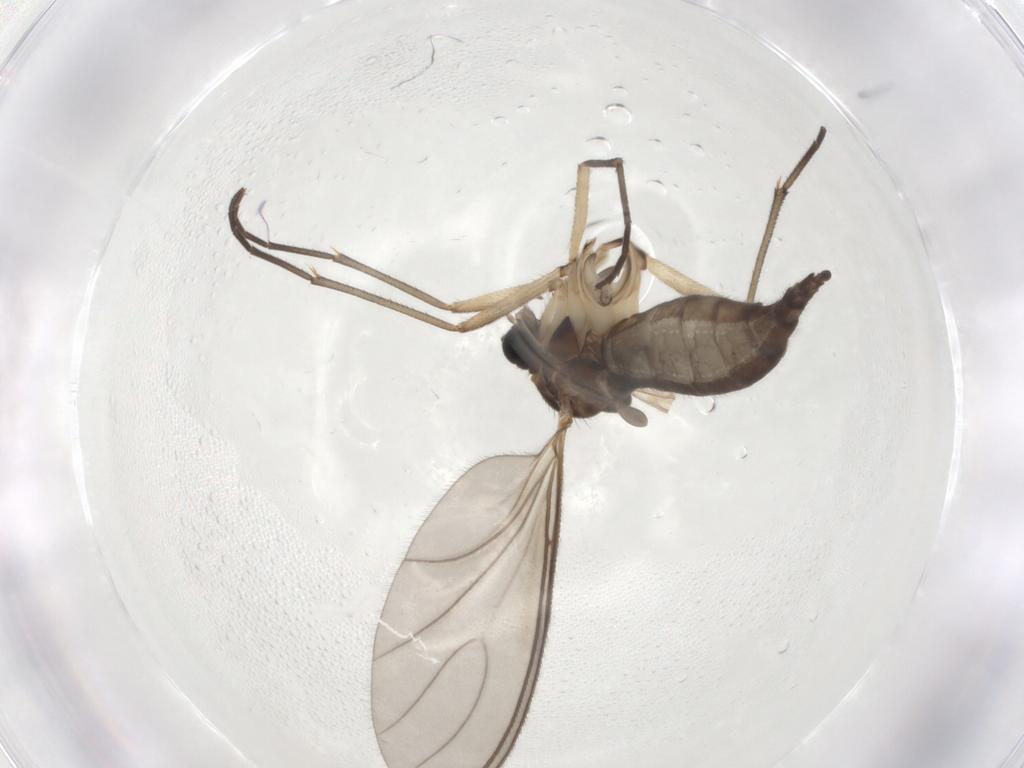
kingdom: Animalia
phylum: Arthropoda
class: Insecta
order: Diptera
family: Sciaridae
